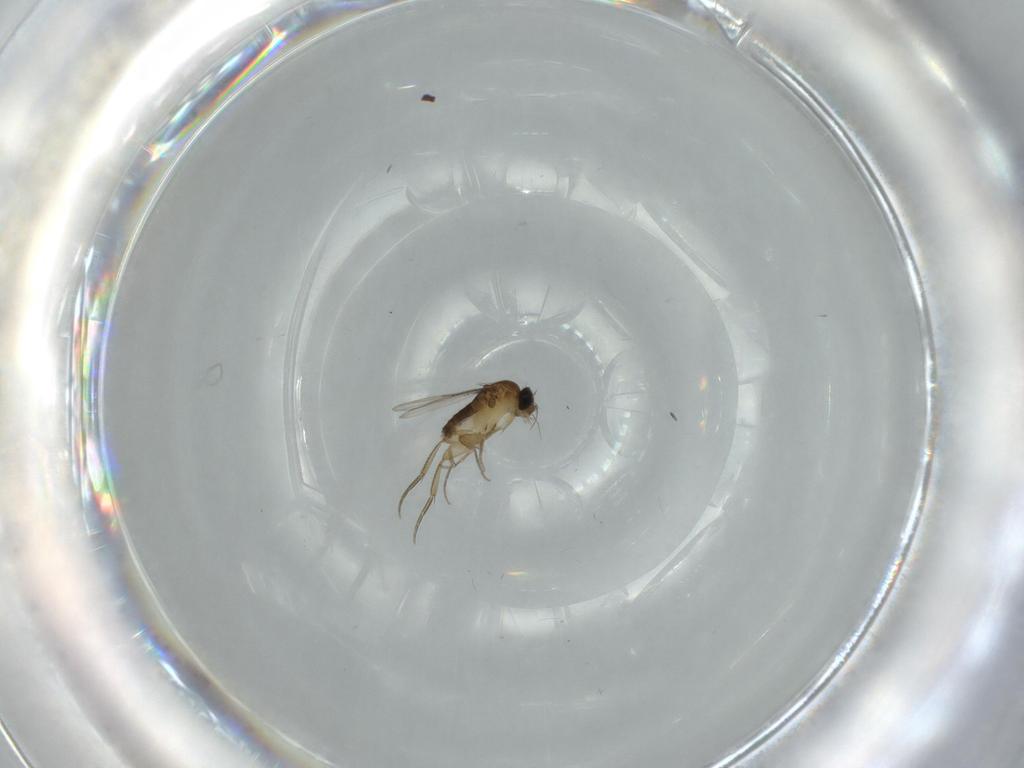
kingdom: Animalia
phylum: Arthropoda
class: Insecta
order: Diptera
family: Phoridae
